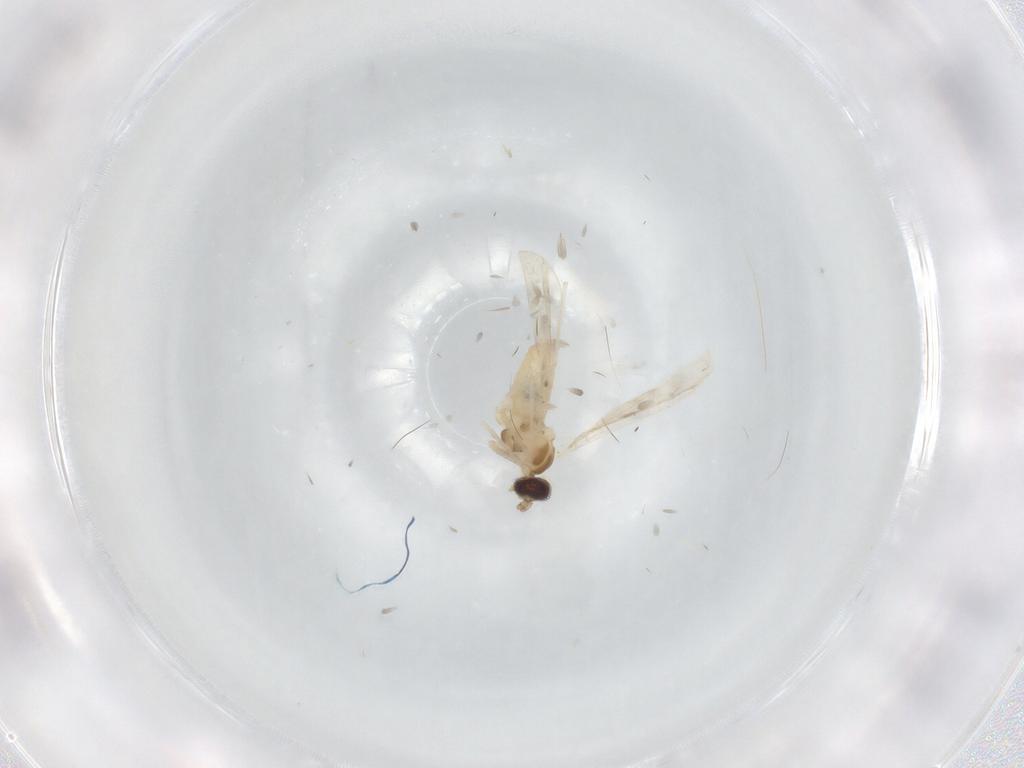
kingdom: Animalia
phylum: Arthropoda
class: Insecta
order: Diptera
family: Cecidomyiidae
